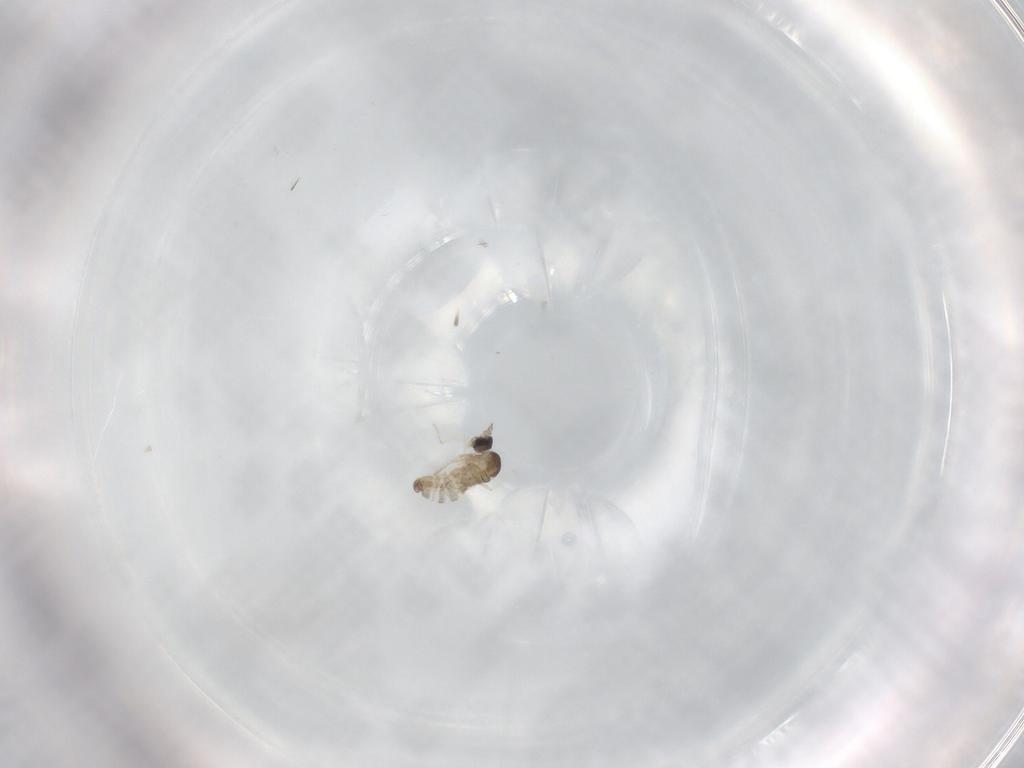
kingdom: Animalia
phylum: Arthropoda
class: Insecta
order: Diptera
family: Cecidomyiidae
